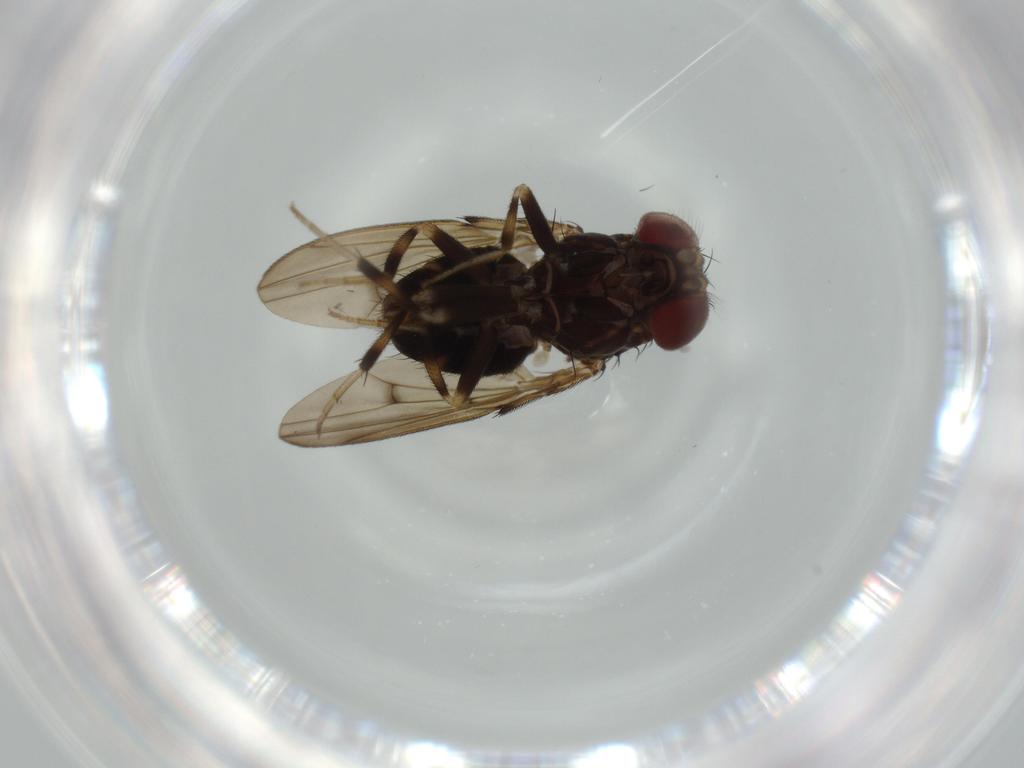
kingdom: Animalia
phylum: Arthropoda
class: Insecta
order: Diptera
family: Drosophilidae
